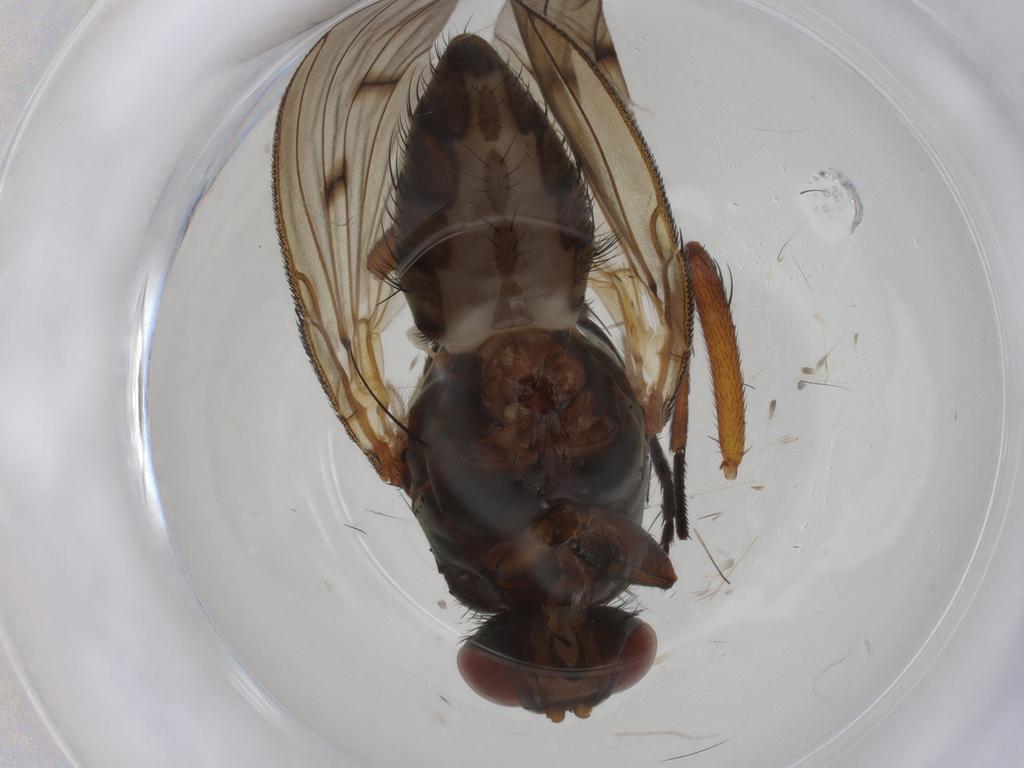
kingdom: Animalia
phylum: Arthropoda
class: Insecta
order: Diptera
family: Anthomyiidae
